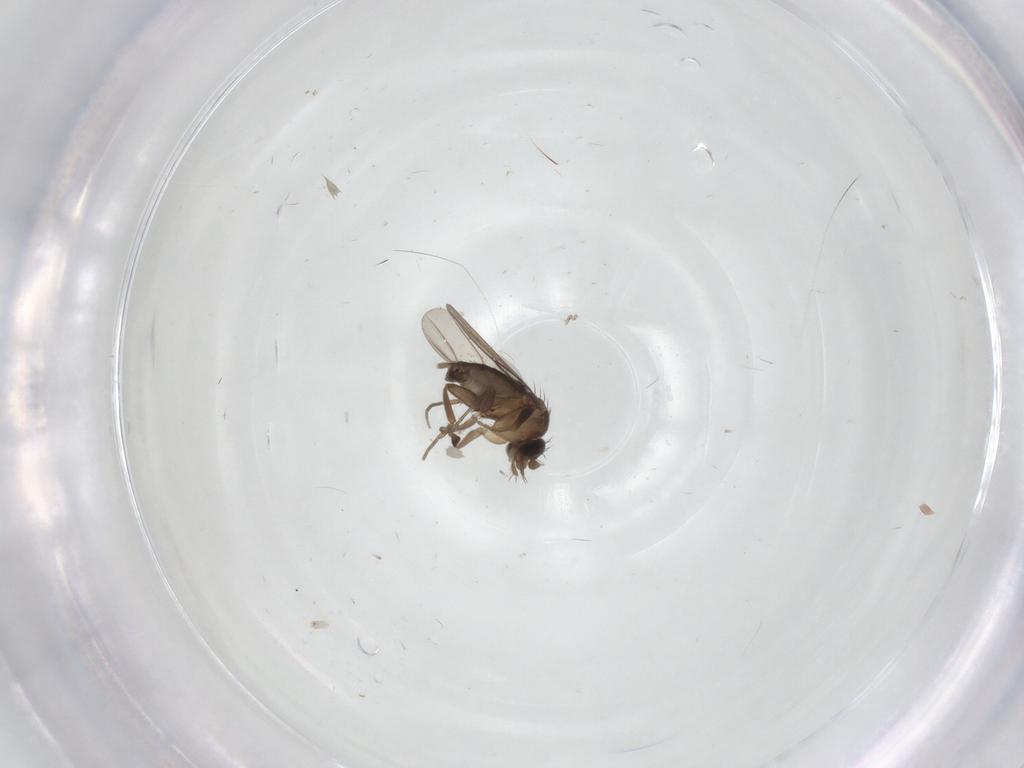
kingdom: Animalia
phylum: Arthropoda
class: Insecta
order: Diptera
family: Phoridae
